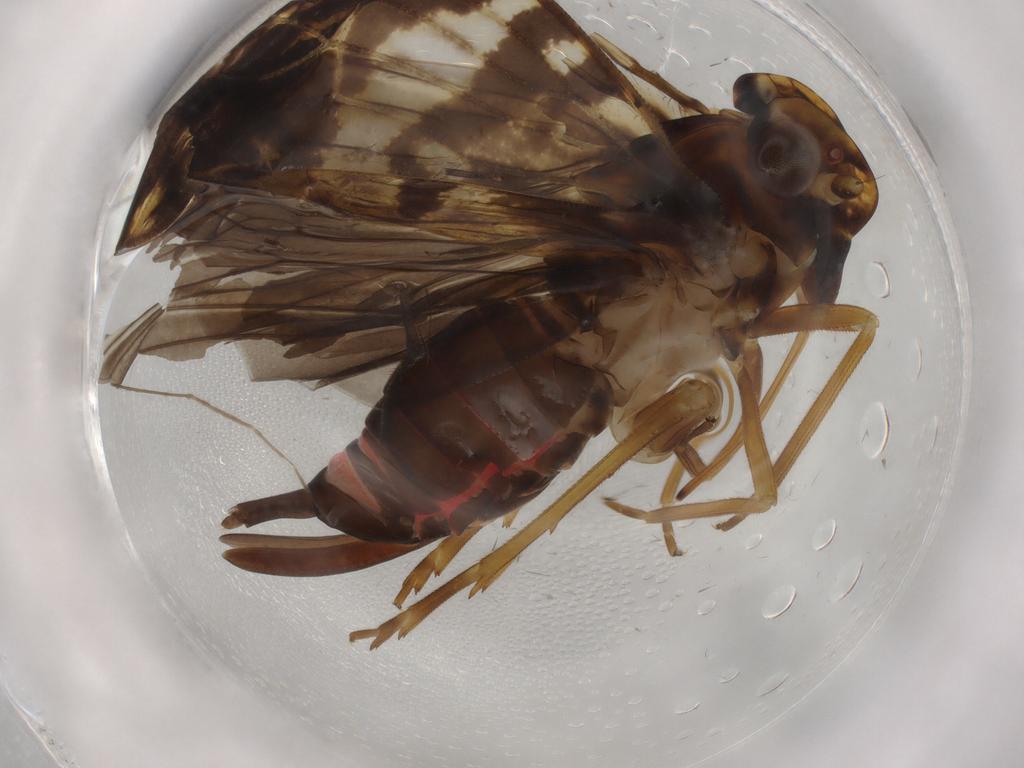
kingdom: Animalia
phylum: Arthropoda
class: Insecta
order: Hemiptera
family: Cixiidae
